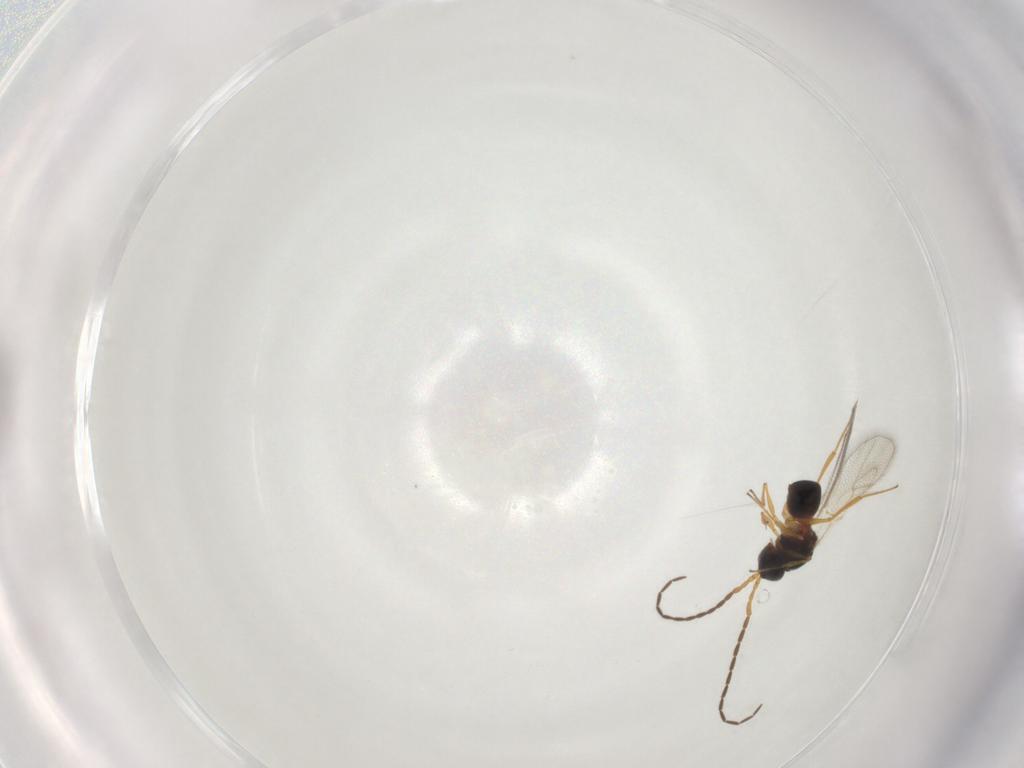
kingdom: Animalia
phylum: Arthropoda
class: Insecta
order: Hymenoptera
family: Figitidae
